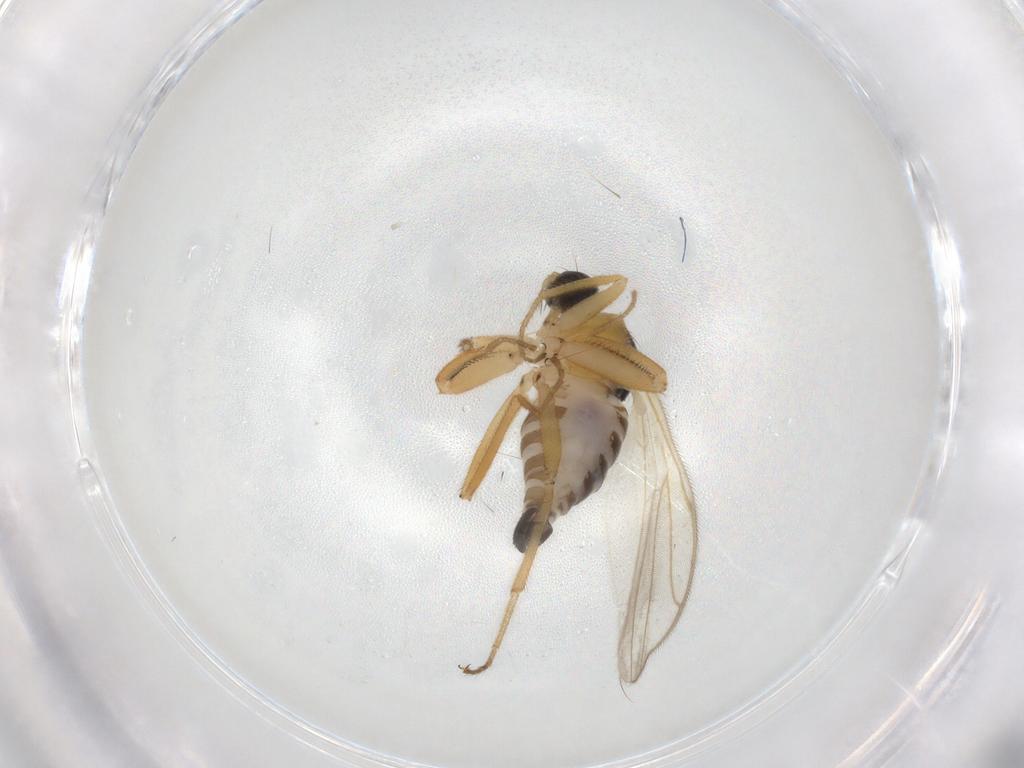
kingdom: Animalia
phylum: Arthropoda
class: Insecta
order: Diptera
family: Chironomidae
